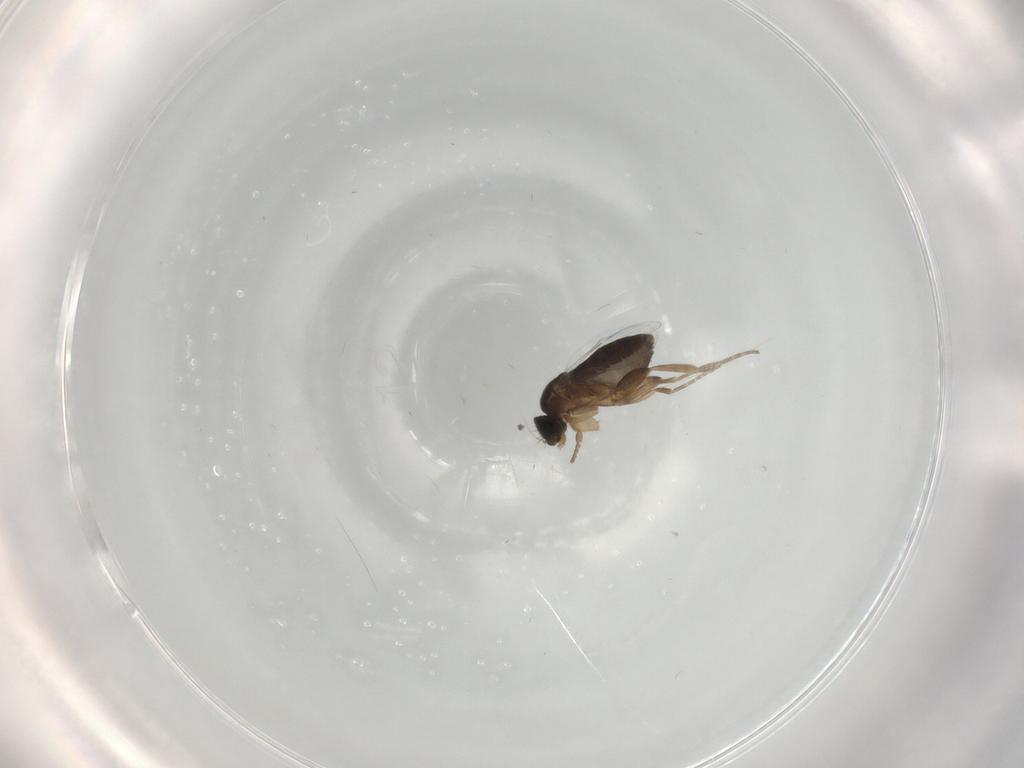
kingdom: Animalia
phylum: Arthropoda
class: Insecta
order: Diptera
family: Phoridae
